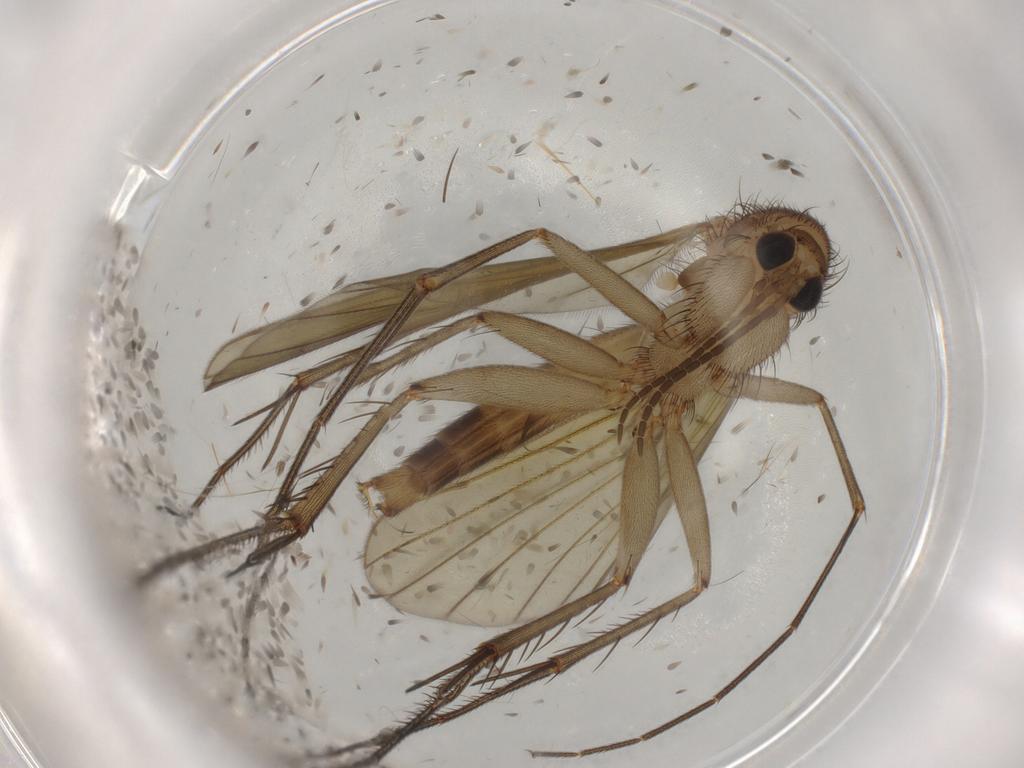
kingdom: Animalia
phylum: Arthropoda
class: Insecta
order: Diptera
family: Mycetophilidae
